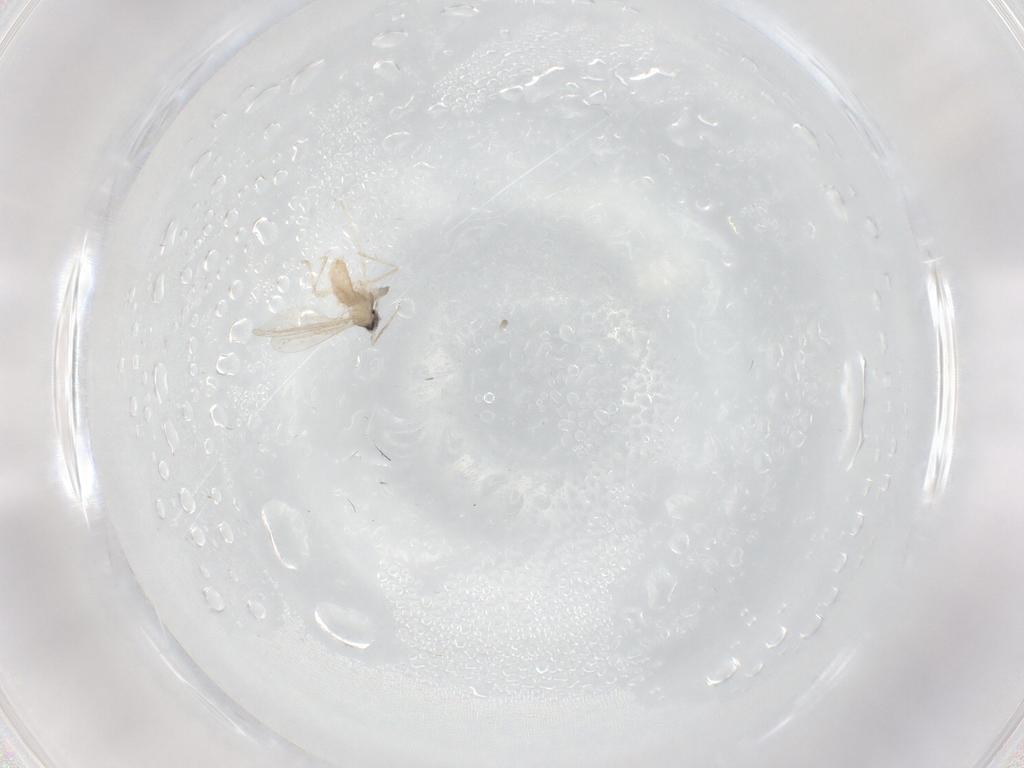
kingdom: Animalia
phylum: Arthropoda
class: Insecta
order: Diptera
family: Cecidomyiidae
